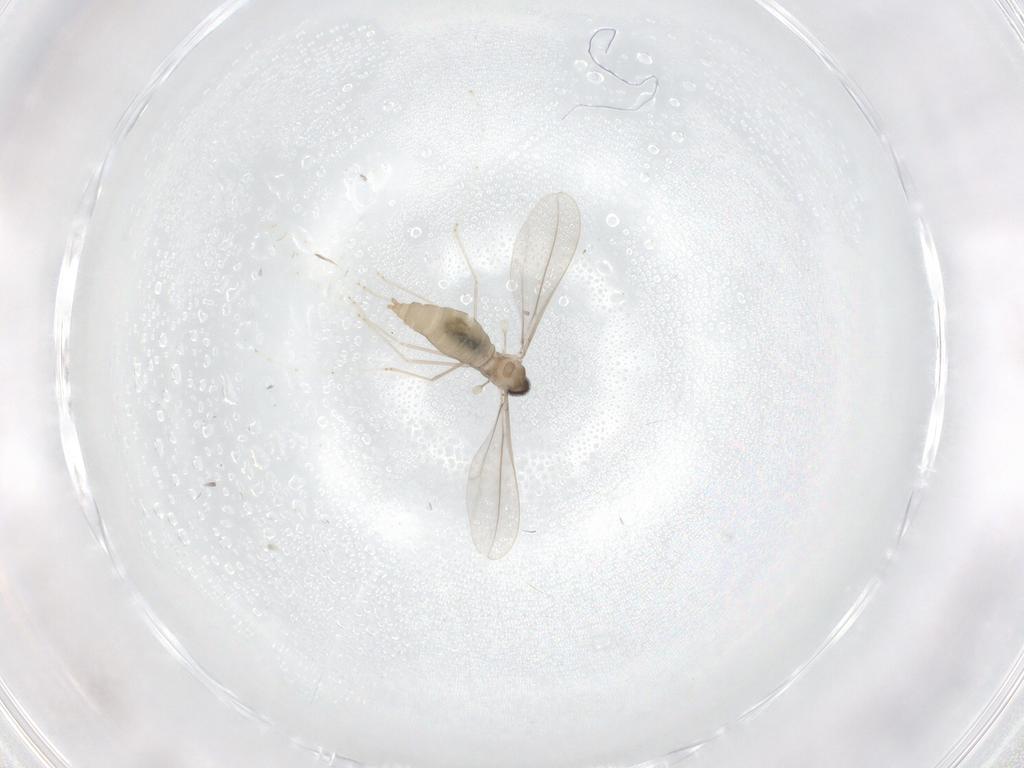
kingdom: Animalia
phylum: Arthropoda
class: Insecta
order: Diptera
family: Cecidomyiidae
